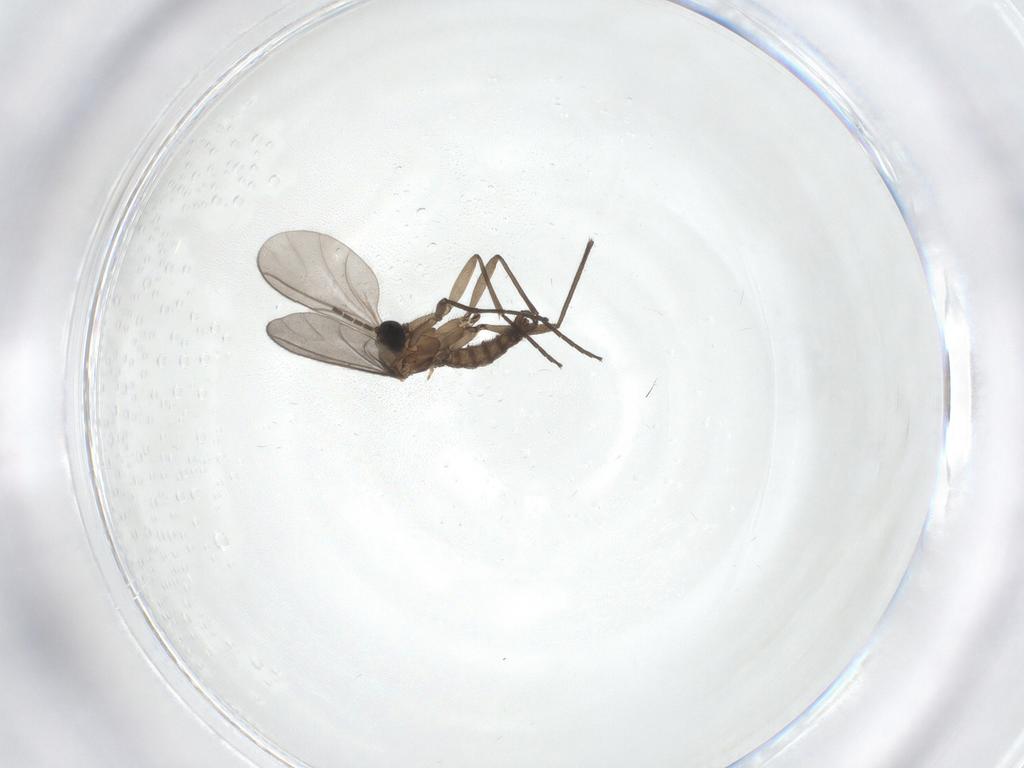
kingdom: Animalia
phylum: Arthropoda
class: Insecta
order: Diptera
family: Sciaridae
